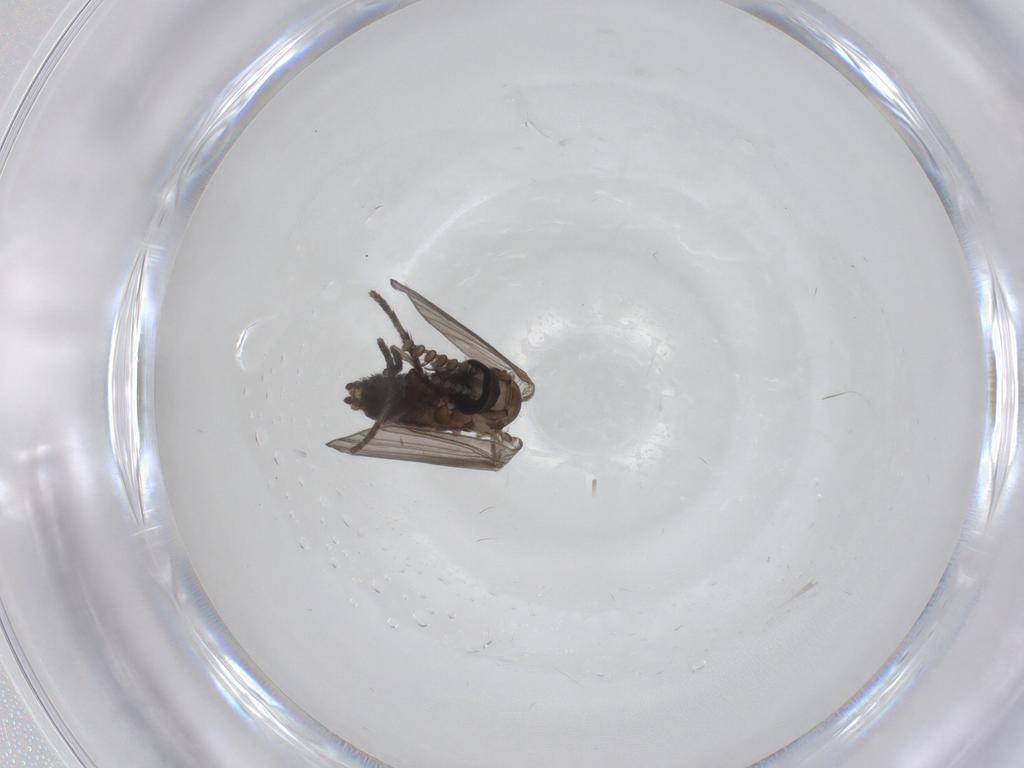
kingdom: Animalia
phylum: Arthropoda
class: Insecta
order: Diptera
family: Psychodidae
